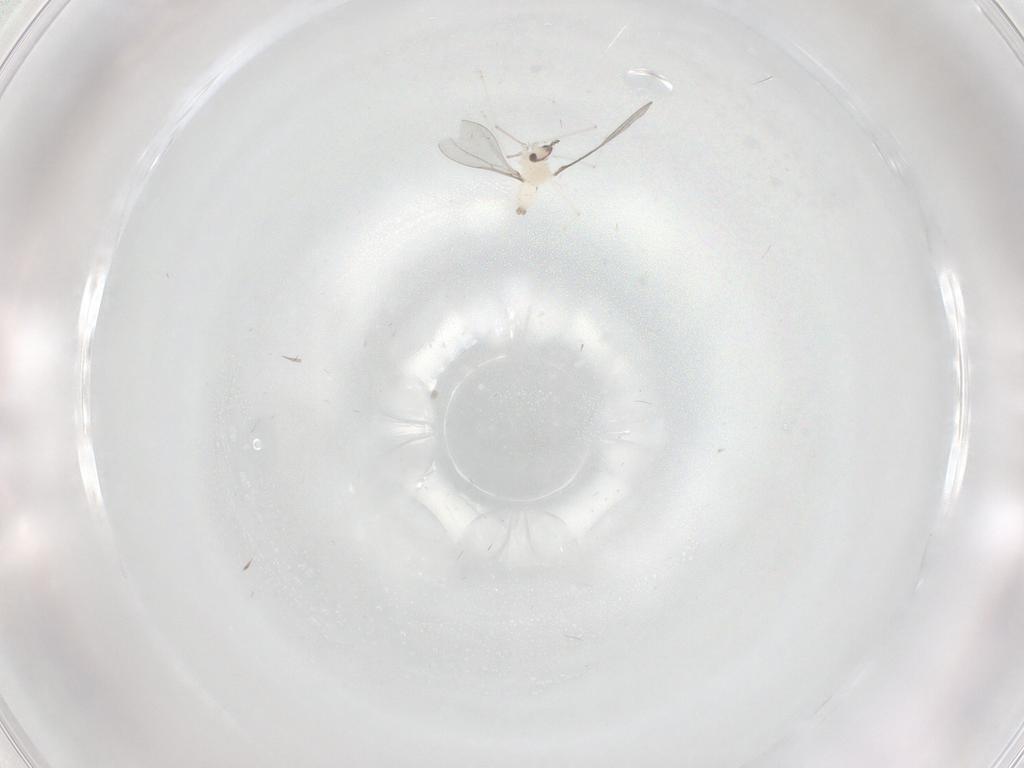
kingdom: Animalia
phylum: Arthropoda
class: Insecta
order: Diptera
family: Cecidomyiidae
